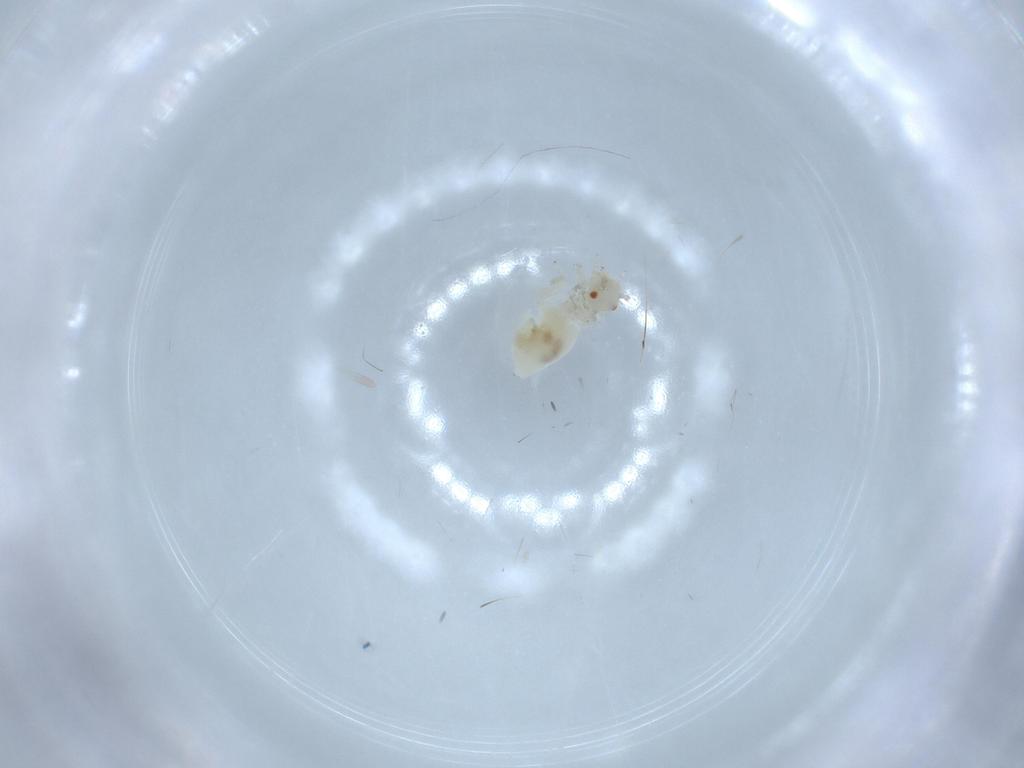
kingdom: Animalia
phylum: Arthropoda
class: Insecta
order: Psocodea
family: Caeciliusidae
